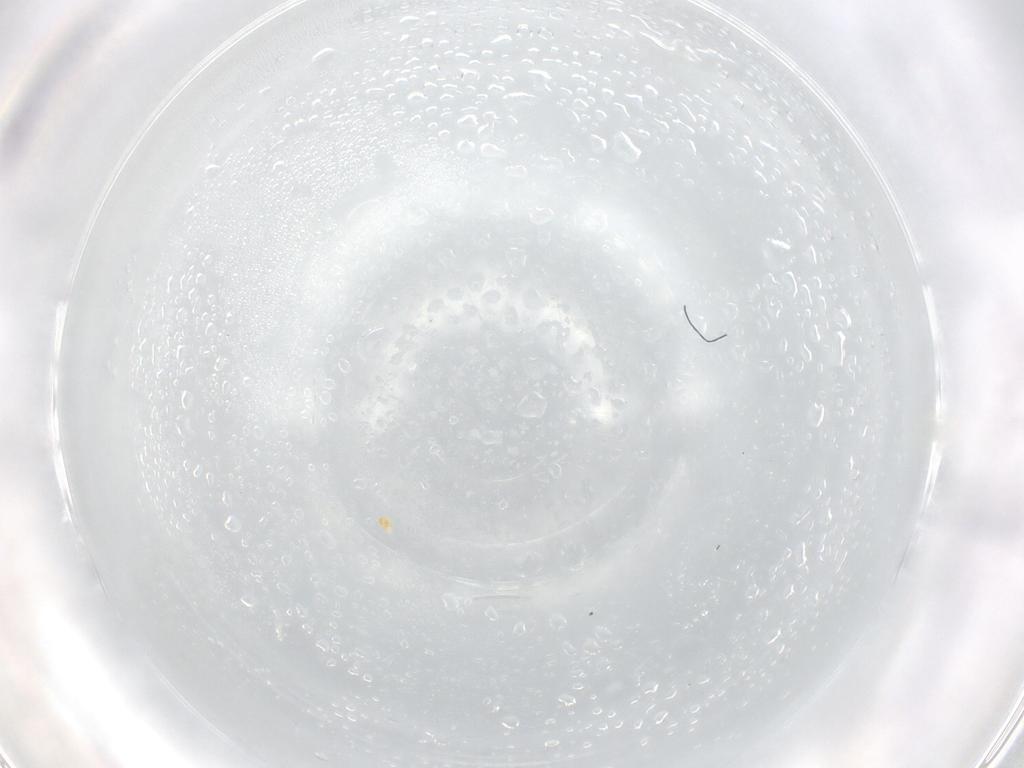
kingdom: Animalia
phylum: Arthropoda
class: Arachnida
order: Trombidiformes
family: Tetranychidae
